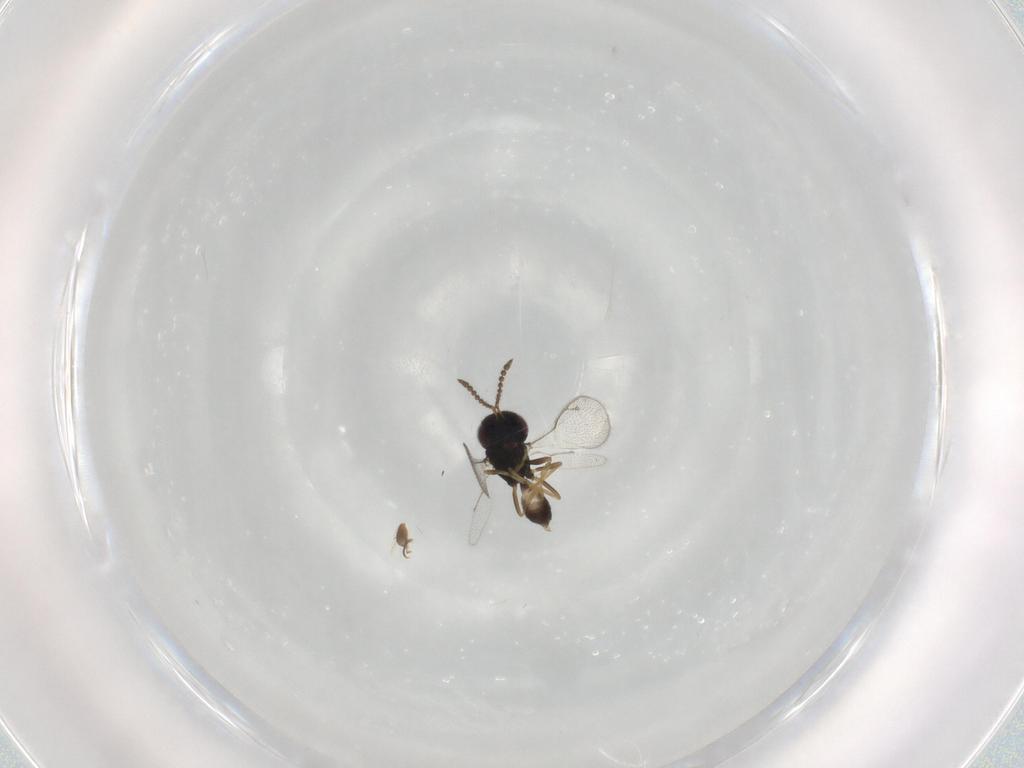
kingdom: Animalia
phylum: Arthropoda
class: Insecta
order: Hymenoptera
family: Pteromalidae
